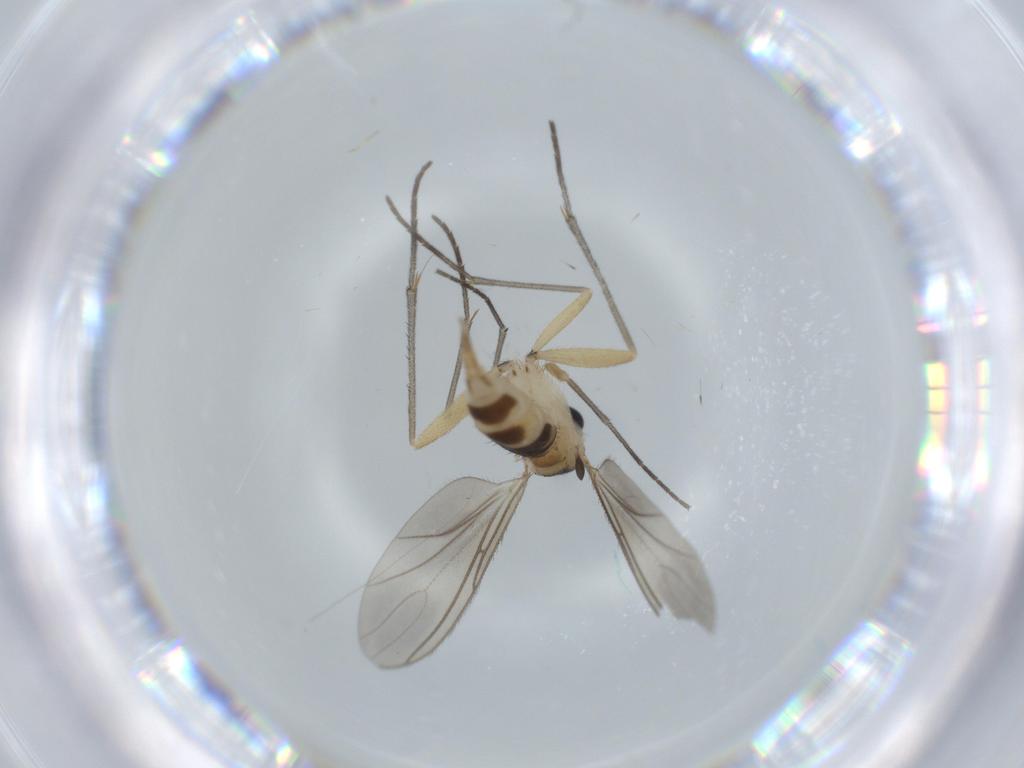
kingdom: Animalia
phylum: Arthropoda
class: Insecta
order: Diptera
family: Sciaridae
